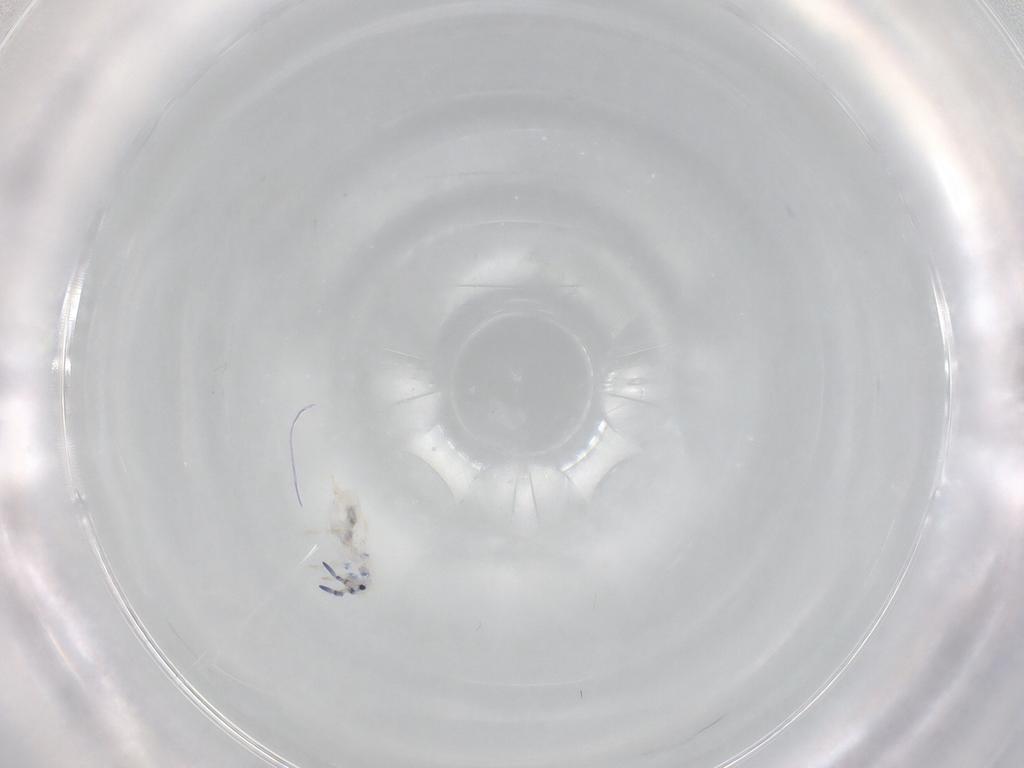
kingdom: Animalia
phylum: Arthropoda
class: Collembola
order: Entomobryomorpha
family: Entomobryidae
